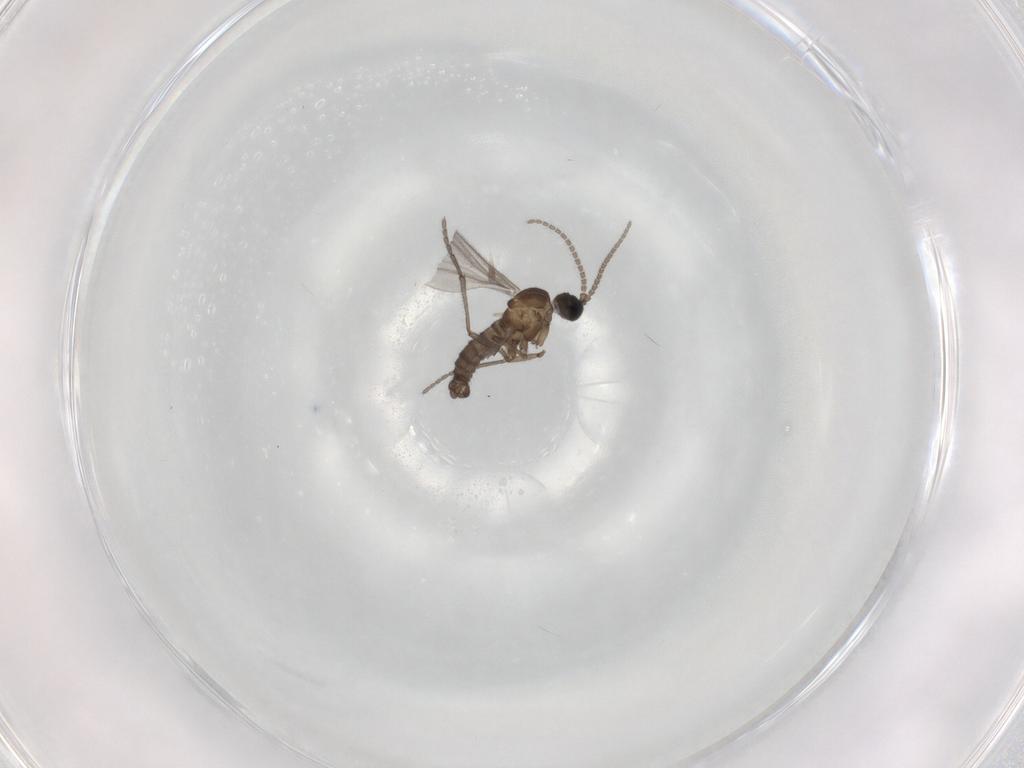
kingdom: Animalia
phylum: Arthropoda
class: Insecta
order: Diptera
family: Sciaridae
